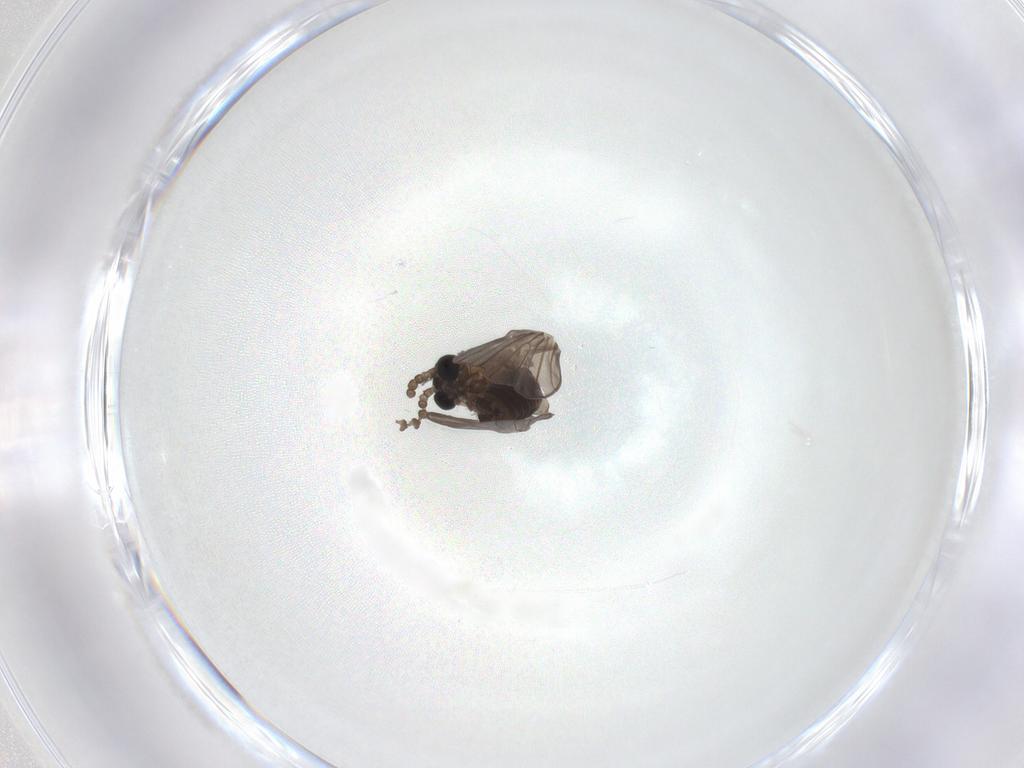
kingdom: Animalia
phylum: Arthropoda
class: Insecta
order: Diptera
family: Psychodidae
